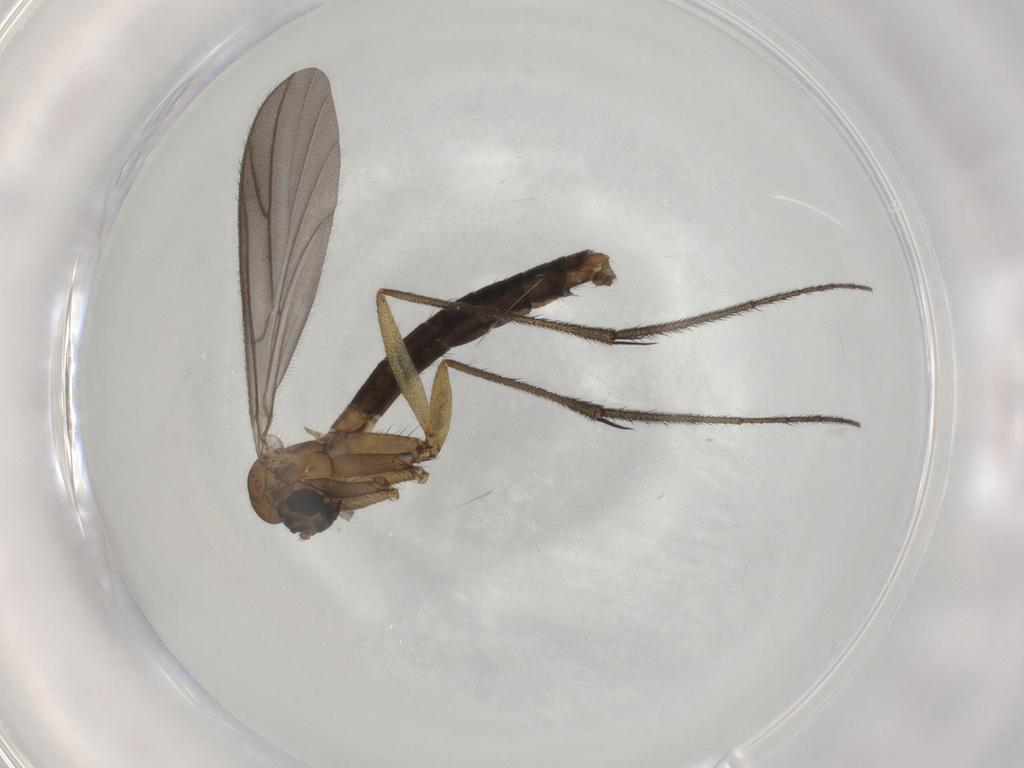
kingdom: Animalia
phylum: Arthropoda
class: Insecta
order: Diptera
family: Ditomyiidae
